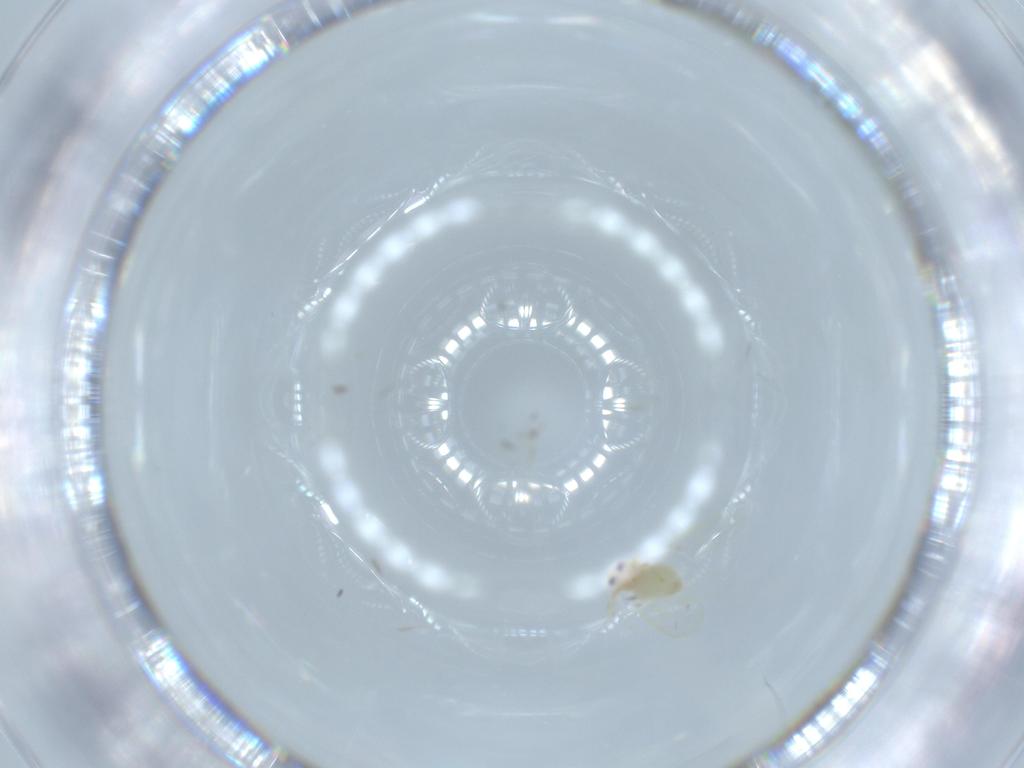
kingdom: Animalia
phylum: Arthropoda
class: Insecta
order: Hemiptera
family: Aleyrodidae
